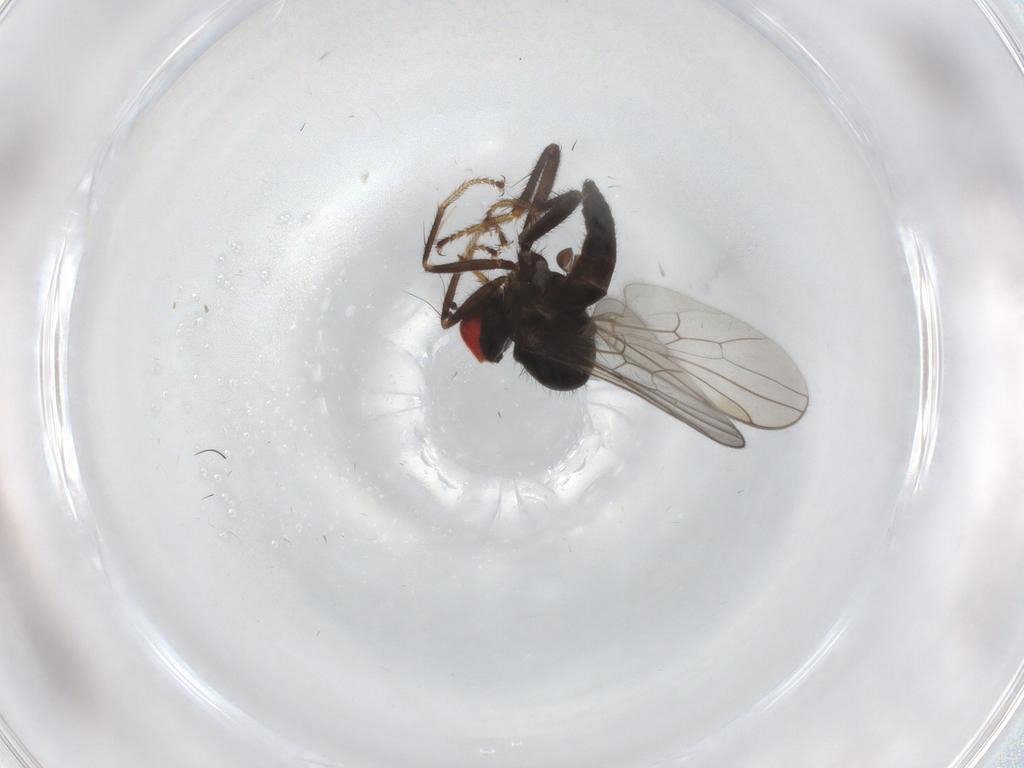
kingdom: Animalia
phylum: Arthropoda
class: Insecta
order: Diptera
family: Hybotidae
